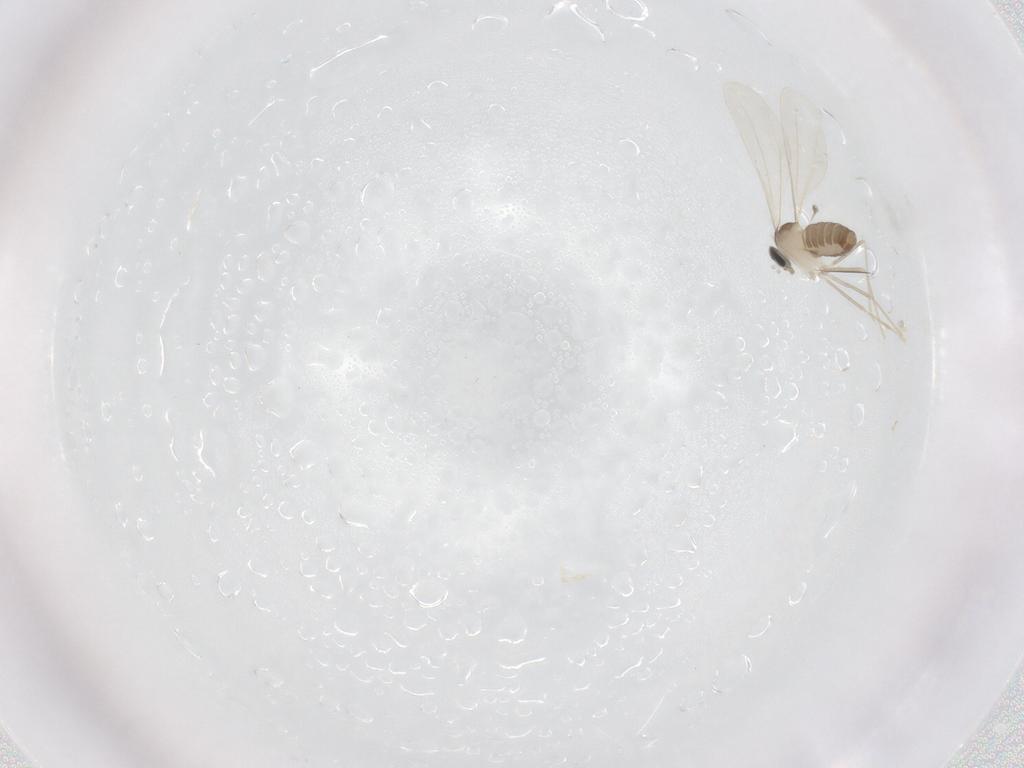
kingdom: Animalia
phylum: Arthropoda
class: Insecta
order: Diptera
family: Cecidomyiidae
